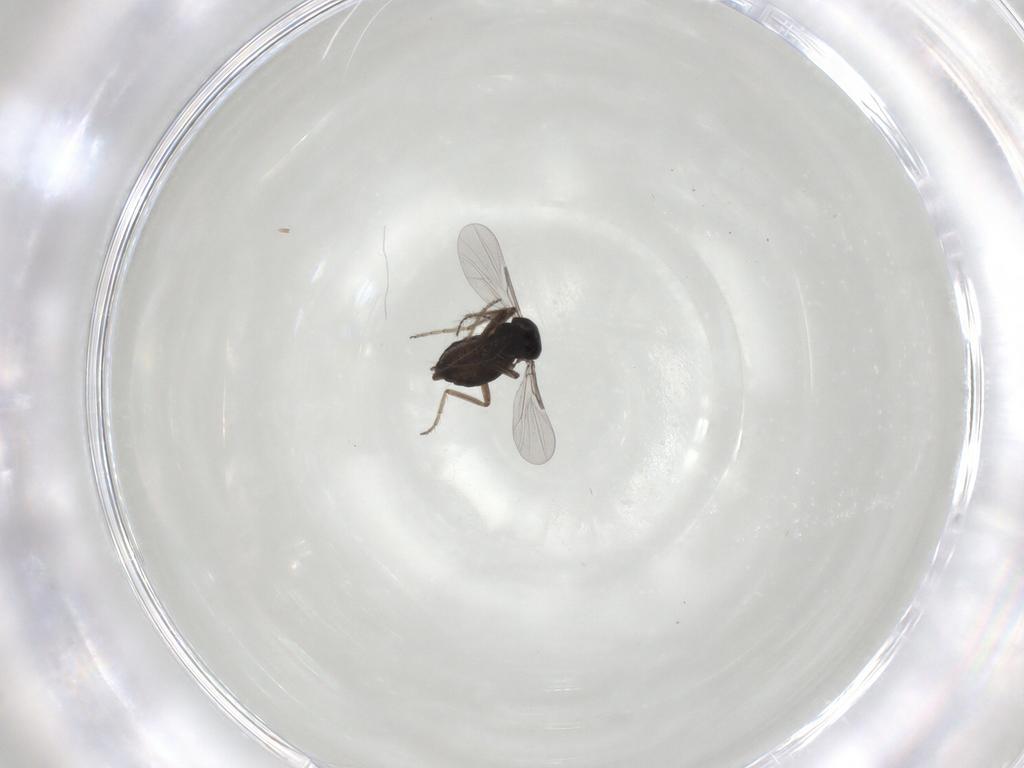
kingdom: Animalia
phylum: Arthropoda
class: Insecta
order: Diptera
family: Ceratopogonidae
